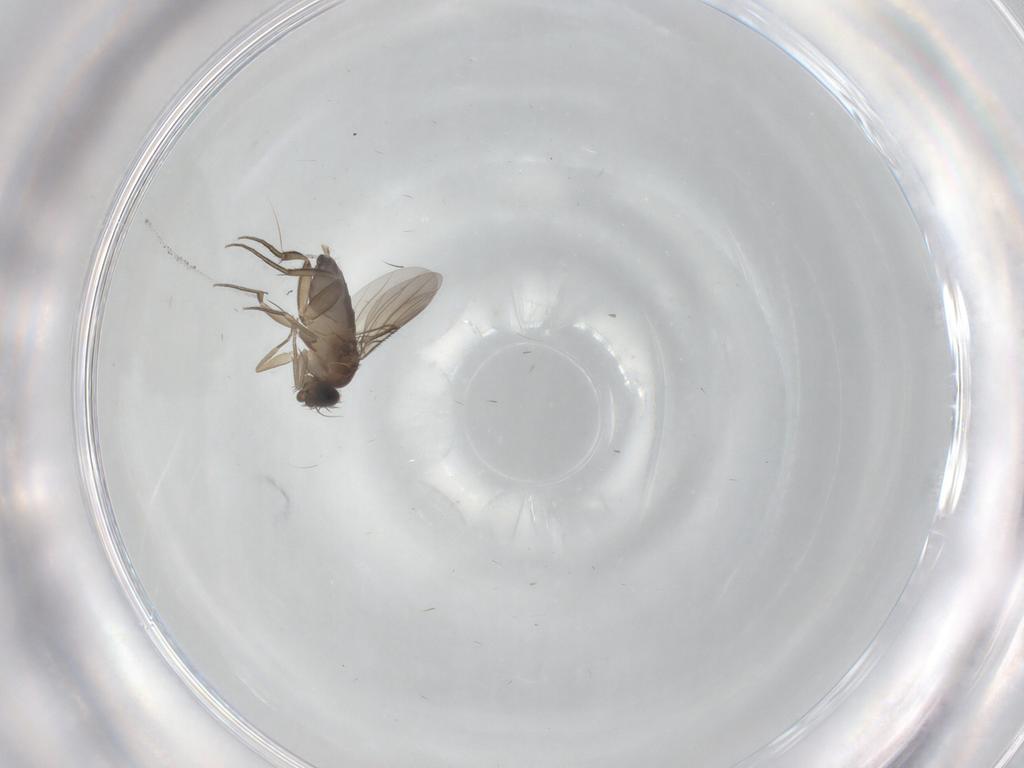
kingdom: Animalia
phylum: Arthropoda
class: Insecta
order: Diptera
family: Phoridae
